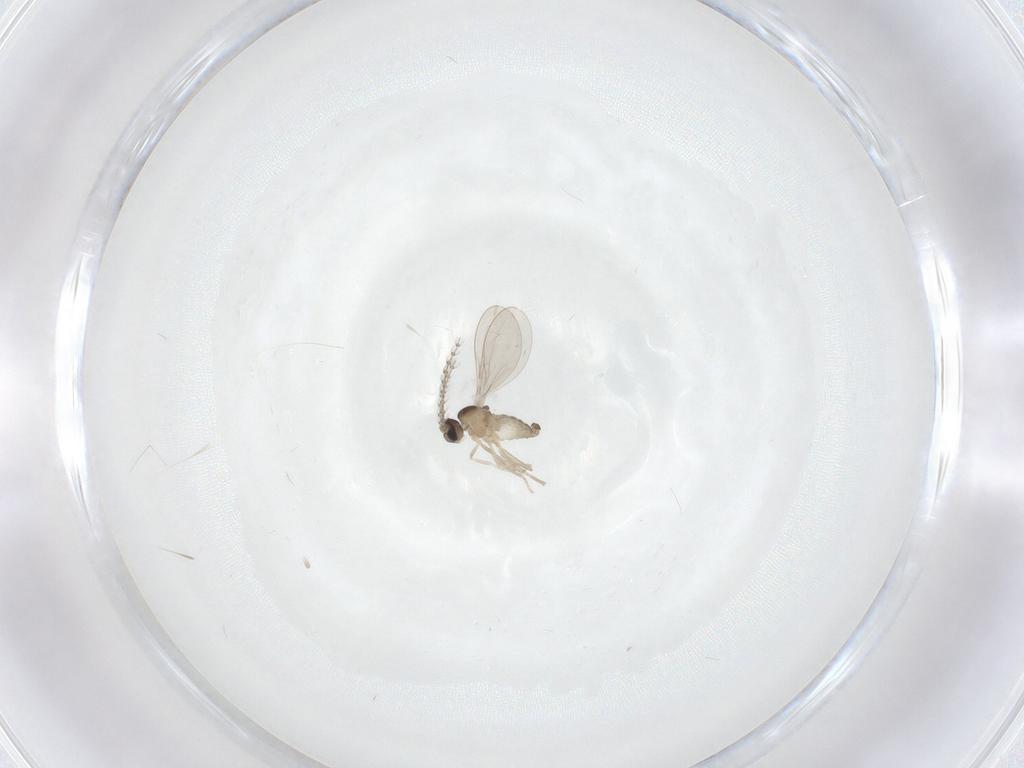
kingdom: Animalia
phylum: Arthropoda
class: Insecta
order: Diptera
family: Cecidomyiidae
